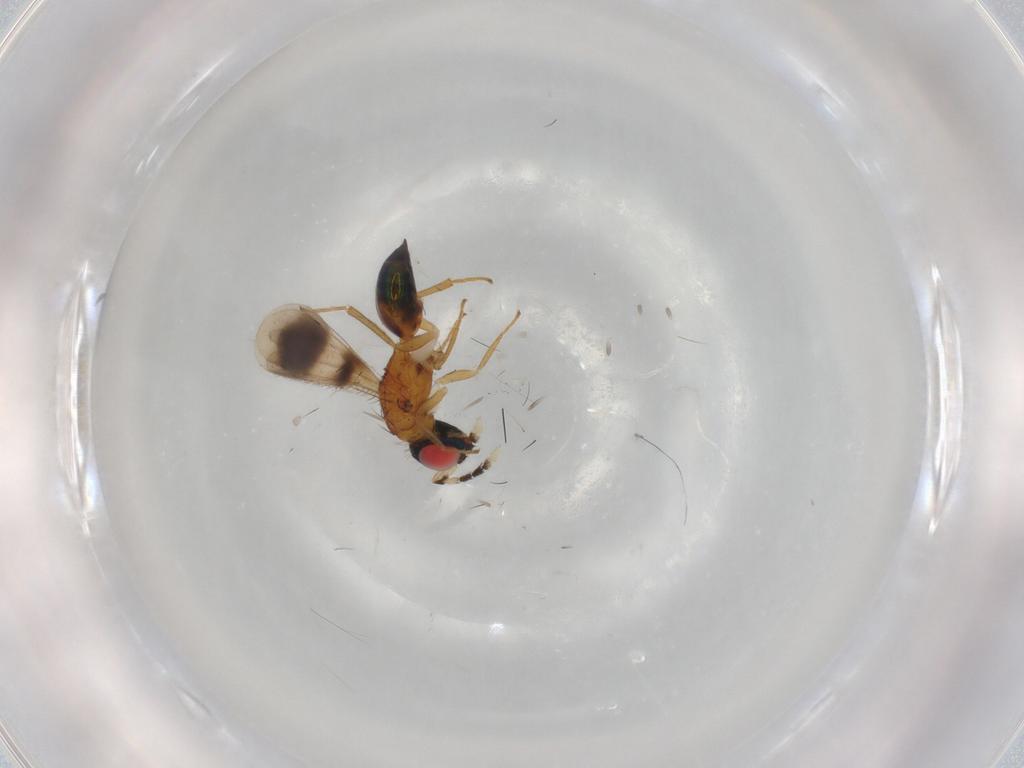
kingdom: Animalia
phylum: Arthropoda
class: Insecta
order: Hymenoptera
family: Eulophidae
